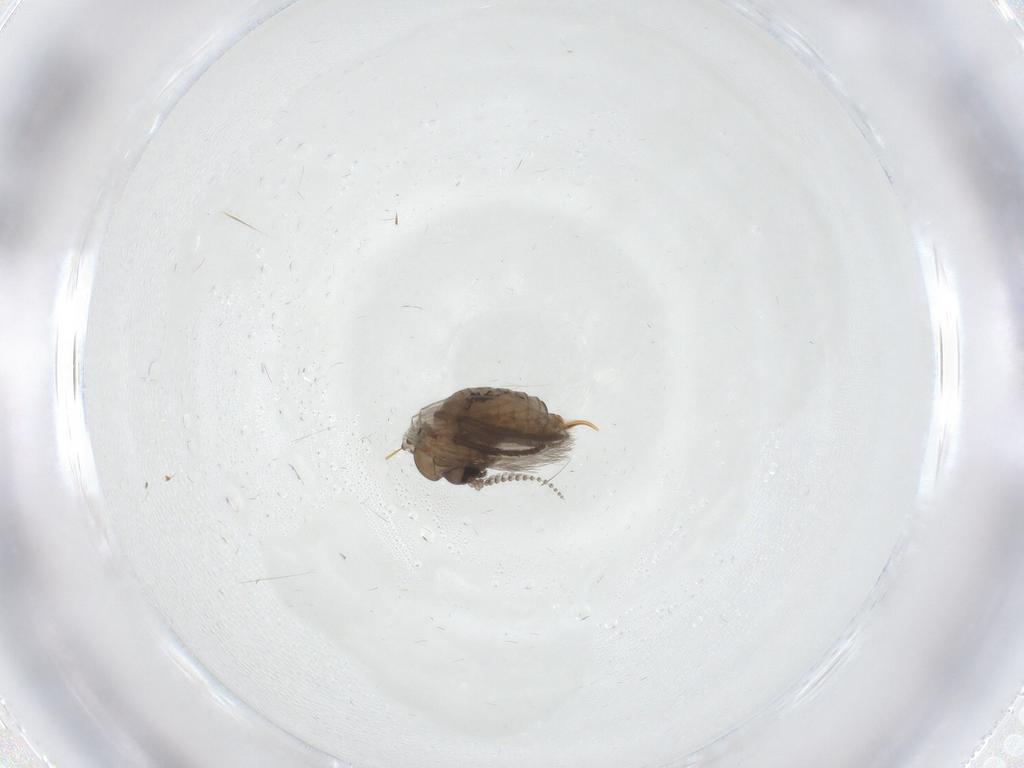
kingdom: Animalia
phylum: Arthropoda
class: Insecta
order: Diptera
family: Psychodidae
